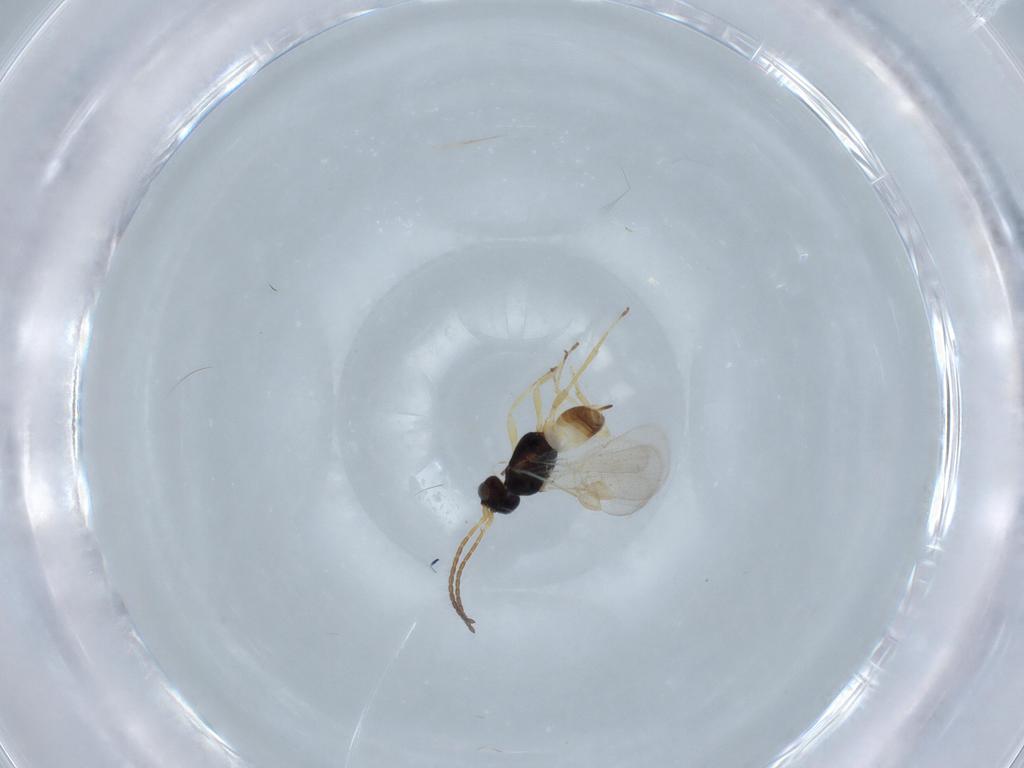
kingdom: Animalia
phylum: Arthropoda
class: Insecta
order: Hymenoptera
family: Braconidae
